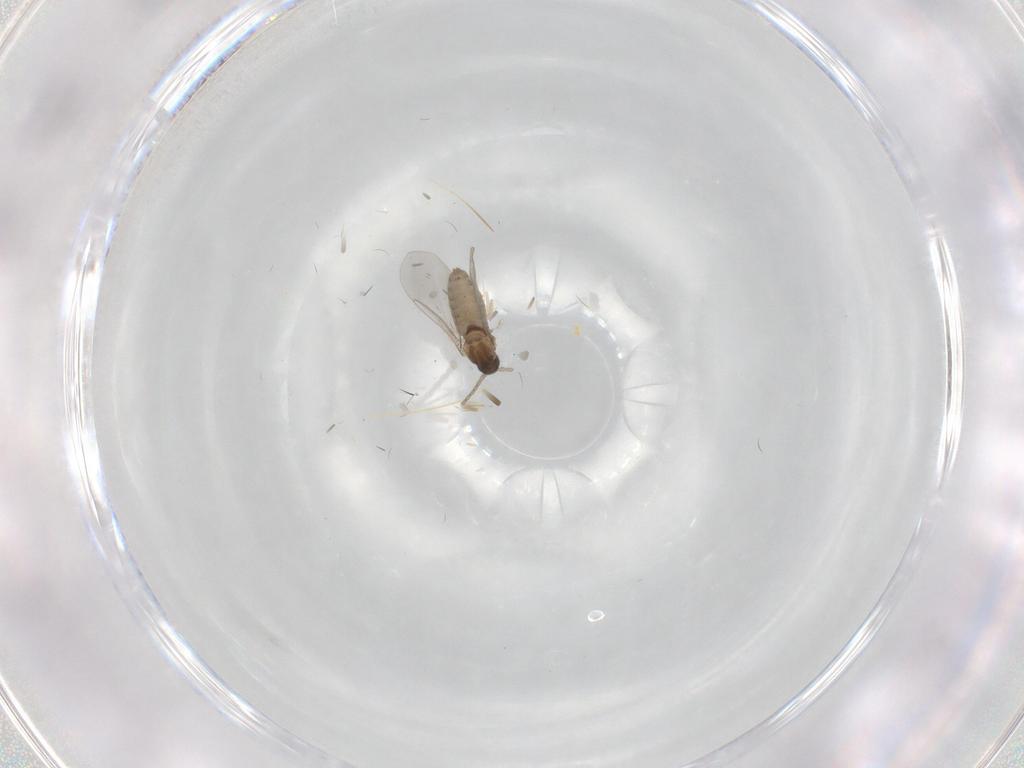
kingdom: Animalia
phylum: Arthropoda
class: Insecta
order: Diptera
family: Cecidomyiidae
